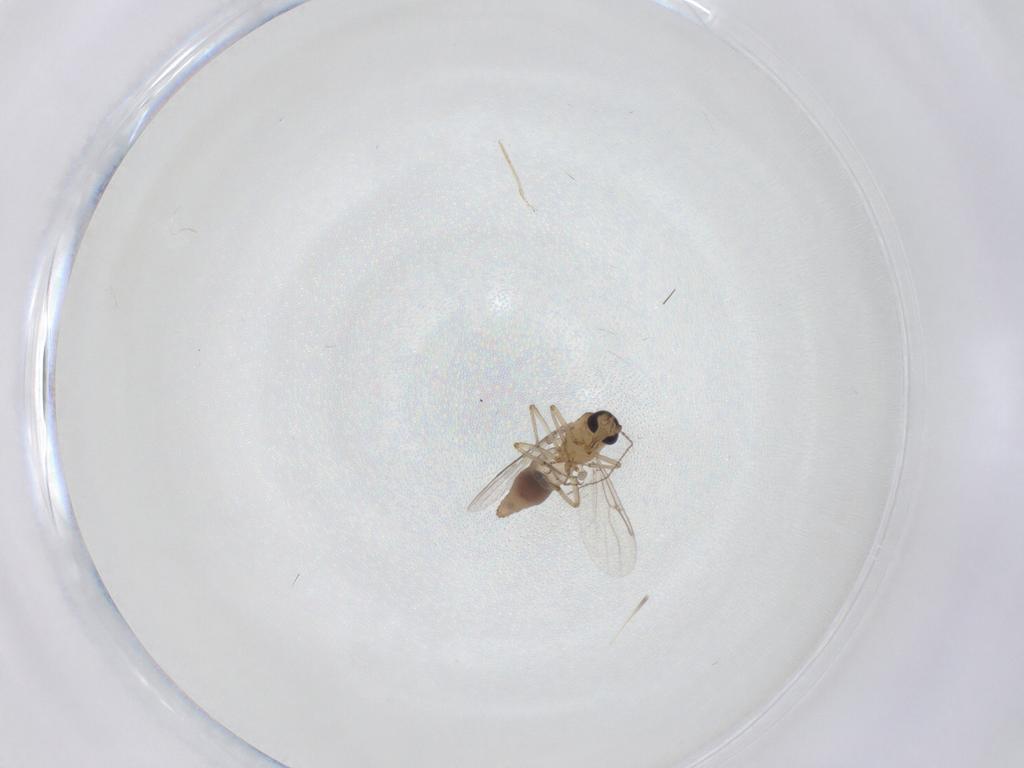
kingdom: Animalia
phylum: Arthropoda
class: Insecta
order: Diptera
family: Chironomidae
